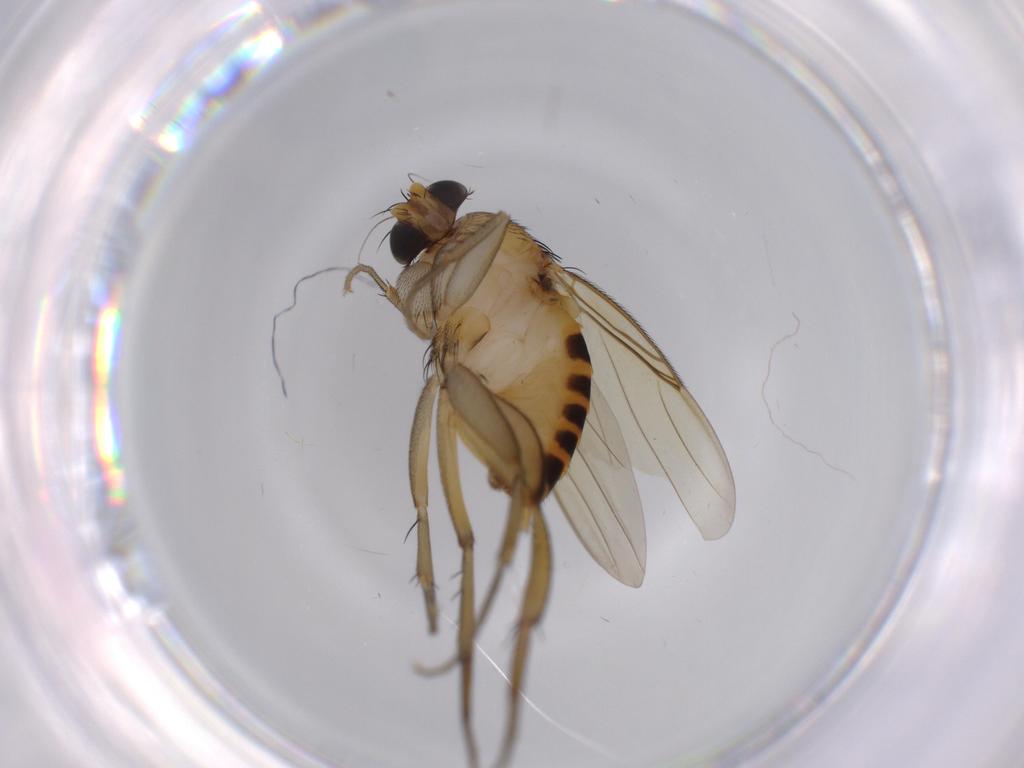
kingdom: Animalia
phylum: Arthropoda
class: Insecta
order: Diptera
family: Phoridae
